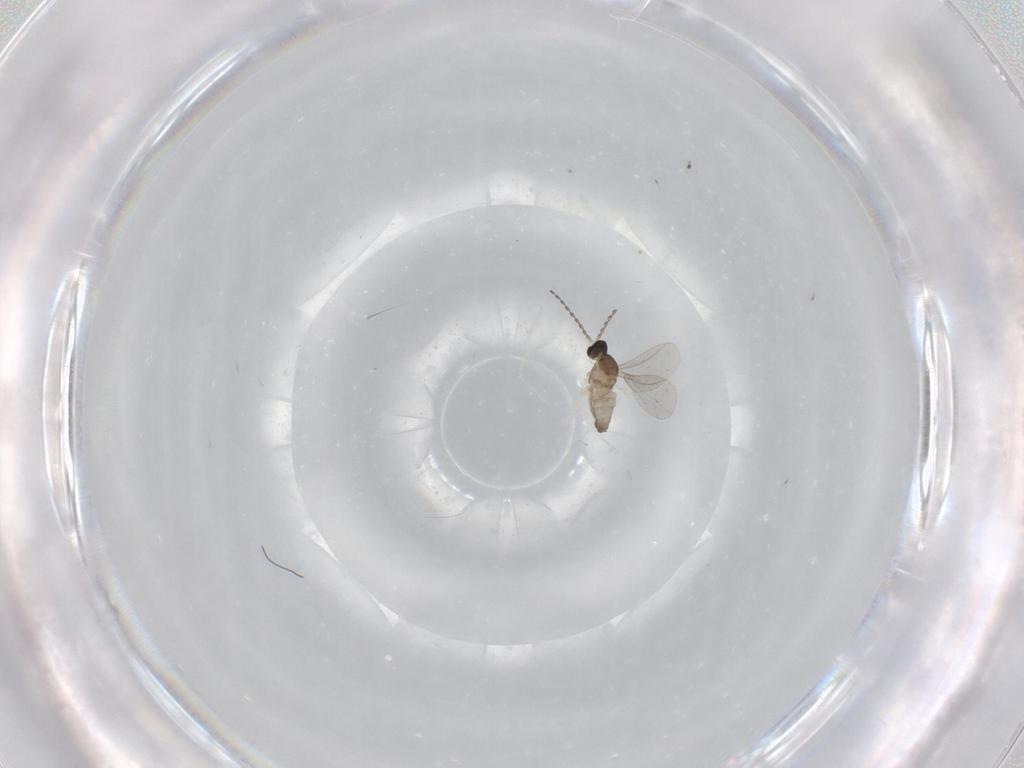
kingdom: Animalia
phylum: Arthropoda
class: Insecta
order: Diptera
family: Cecidomyiidae
